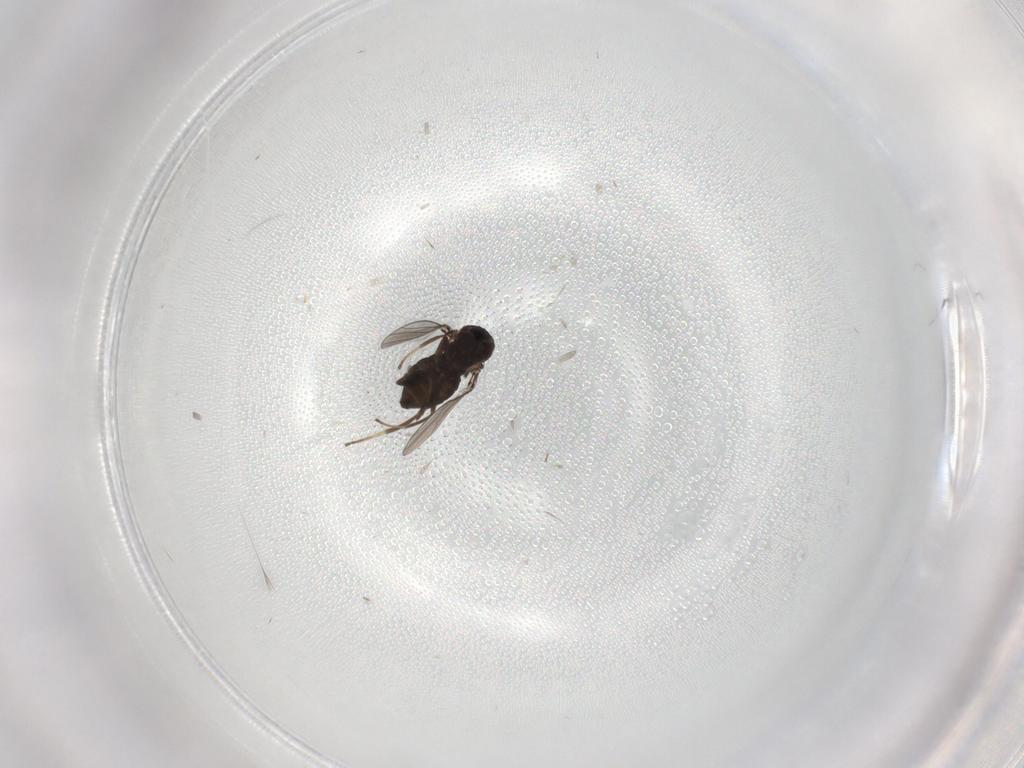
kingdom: Animalia
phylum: Arthropoda
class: Insecta
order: Diptera
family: Dolichopodidae
